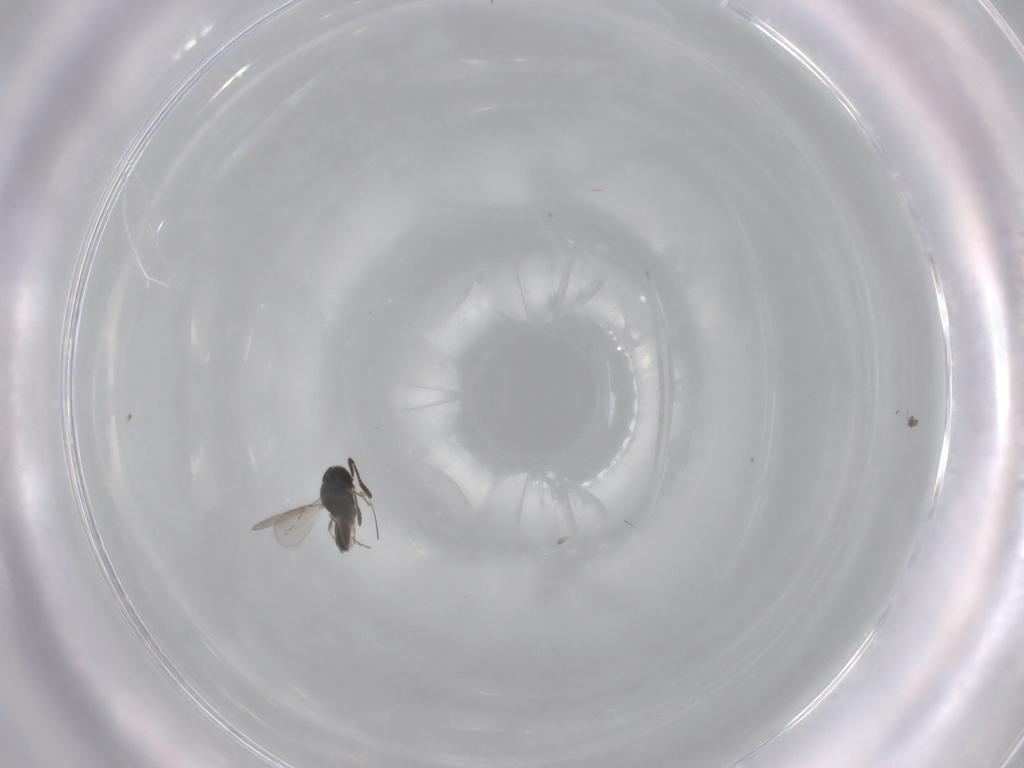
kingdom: Animalia
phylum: Arthropoda
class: Insecta
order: Hymenoptera
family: Scelionidae
